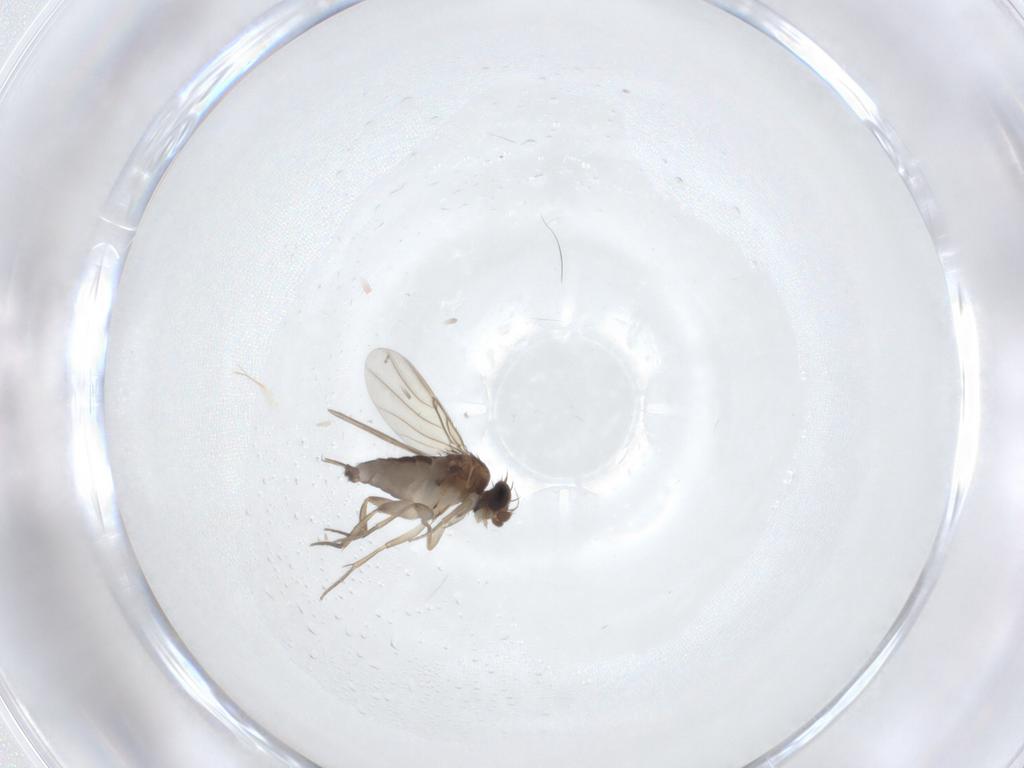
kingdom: Animalia
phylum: Arthropoda
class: Insecta
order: Diptera
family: Phoridae
